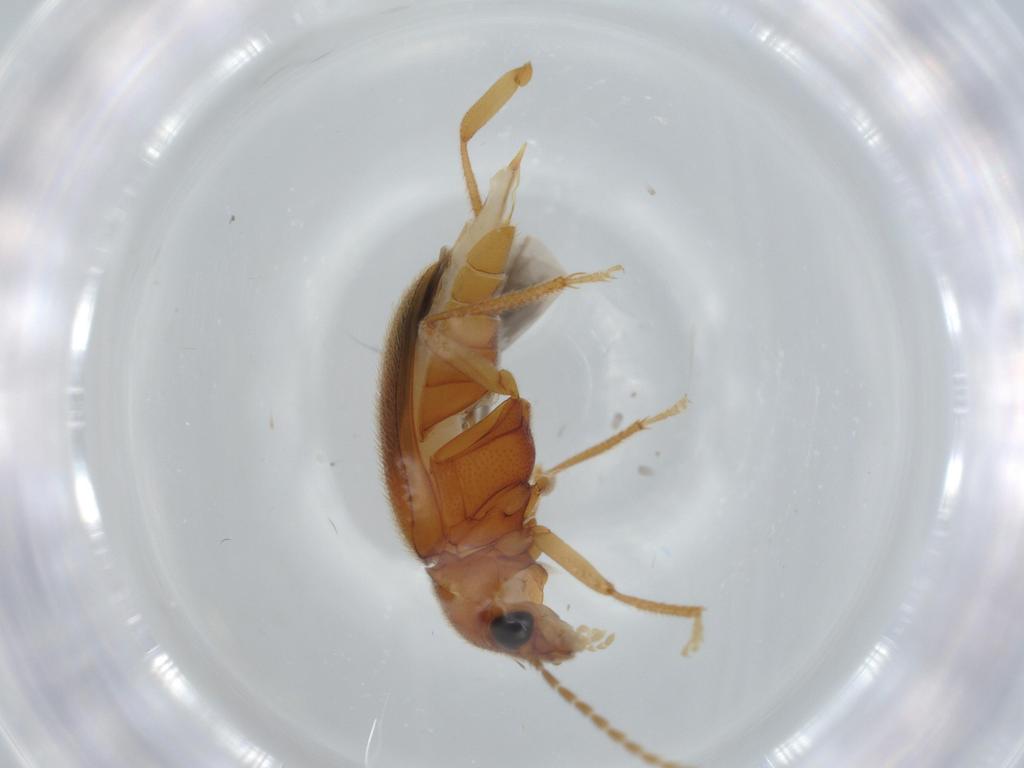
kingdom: Animalia
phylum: Arthropoda
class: Insecta
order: Coleoptera
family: Ptilodactylidae
